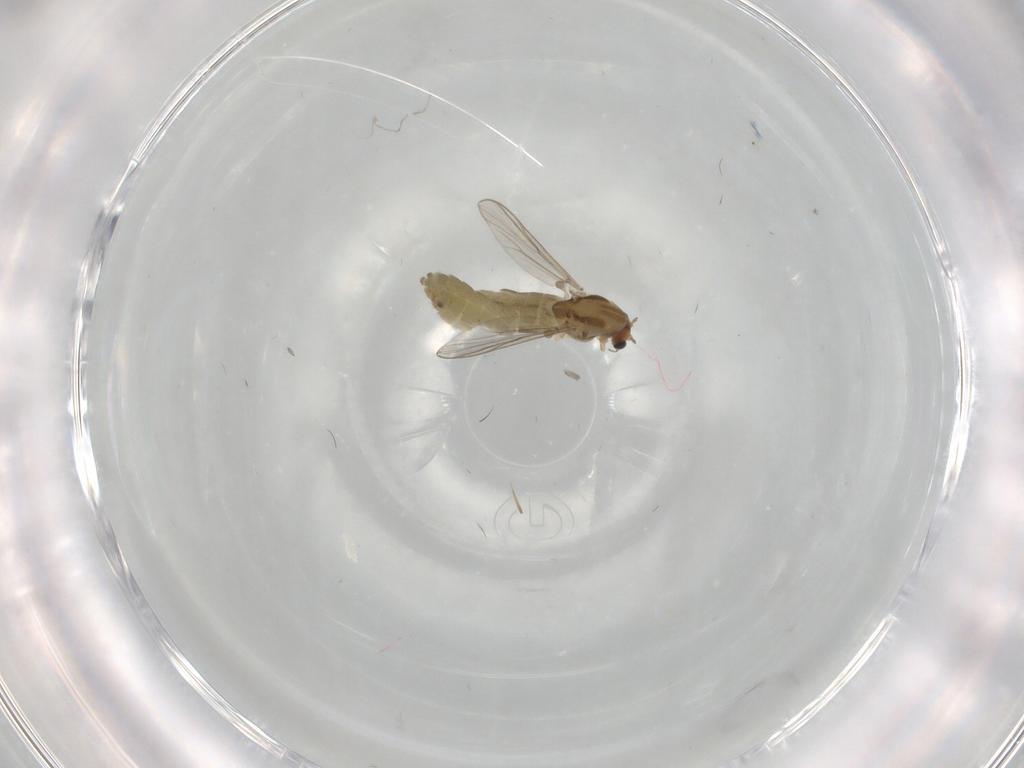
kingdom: Animalia
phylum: Arthropoda
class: Insecta
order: Diptera
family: Chironomidae
